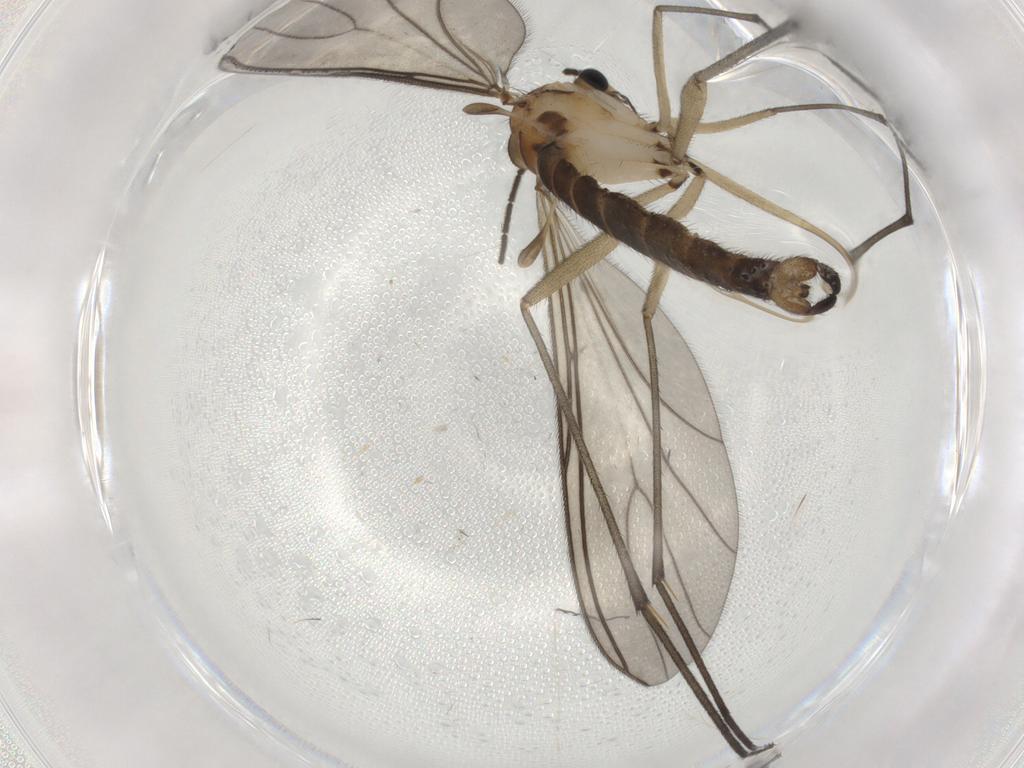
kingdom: Animalia
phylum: Arthropoda
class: Insecta
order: Diptera
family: Sciaridae
